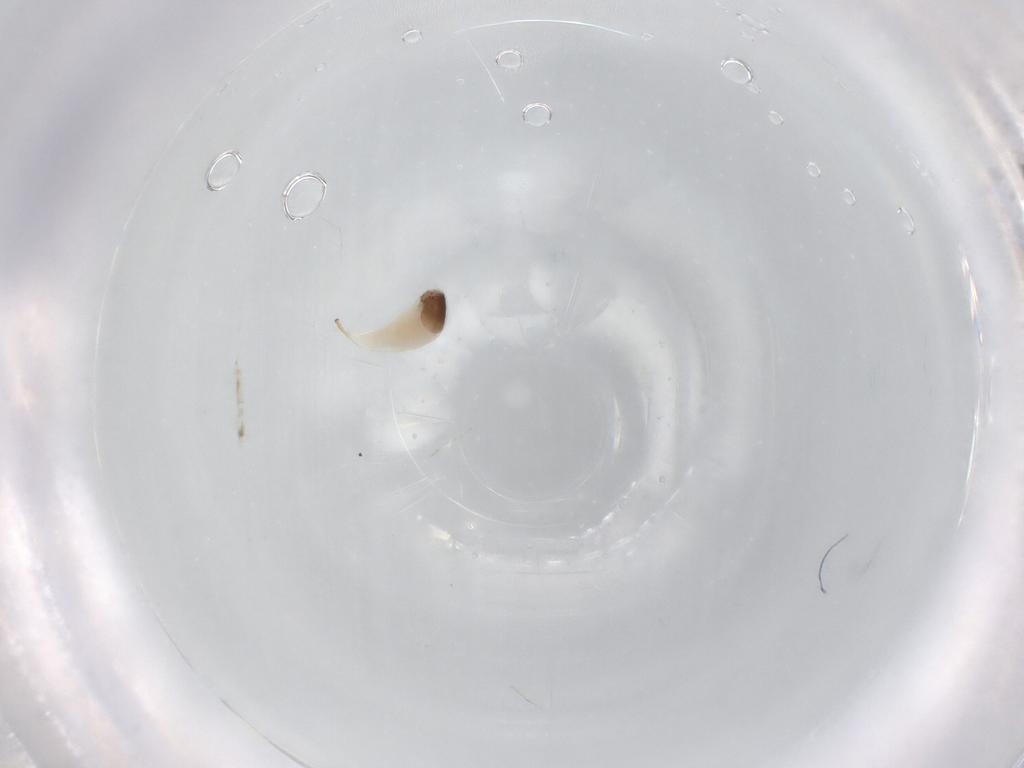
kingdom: Animalia
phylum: Arthropoda
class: Insecta
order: Hymenoptera
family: Ichneumonidae
